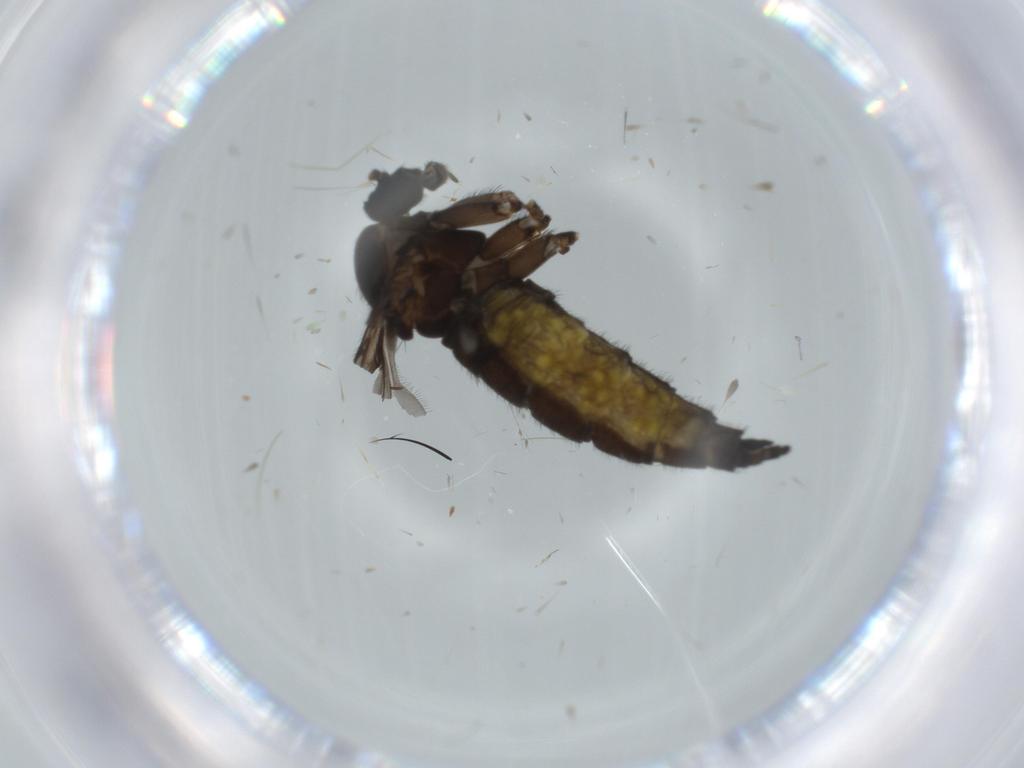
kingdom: Animalia
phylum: Arthropoda
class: Insecta
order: Diptera
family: Sciaridae
